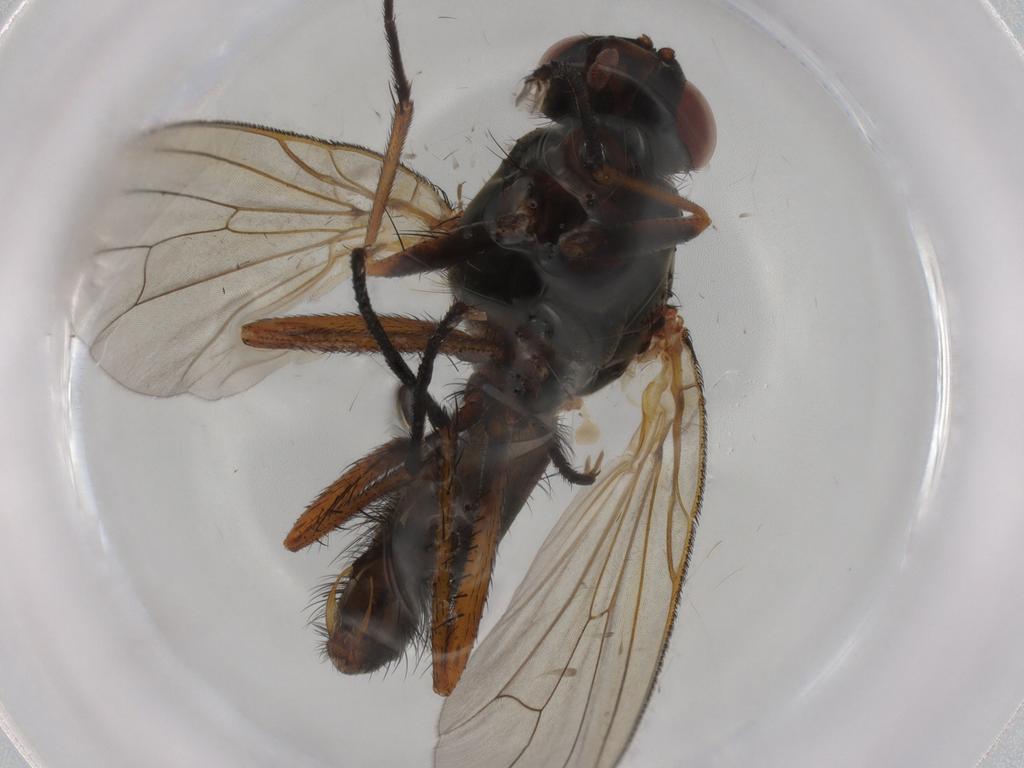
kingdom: Animalia
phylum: Arthropoda
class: Insecta
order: Diptera
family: Anthomyiidae
